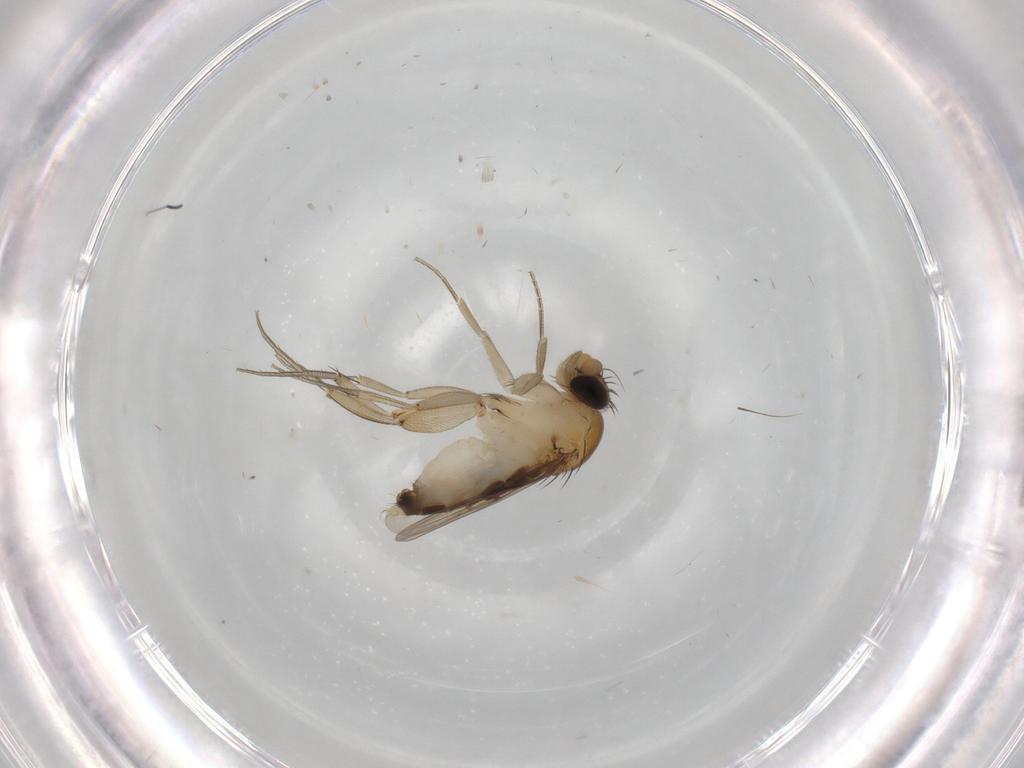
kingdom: Animalia
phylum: Arthropoda
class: Insecta
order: Diptera
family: Phoridae
